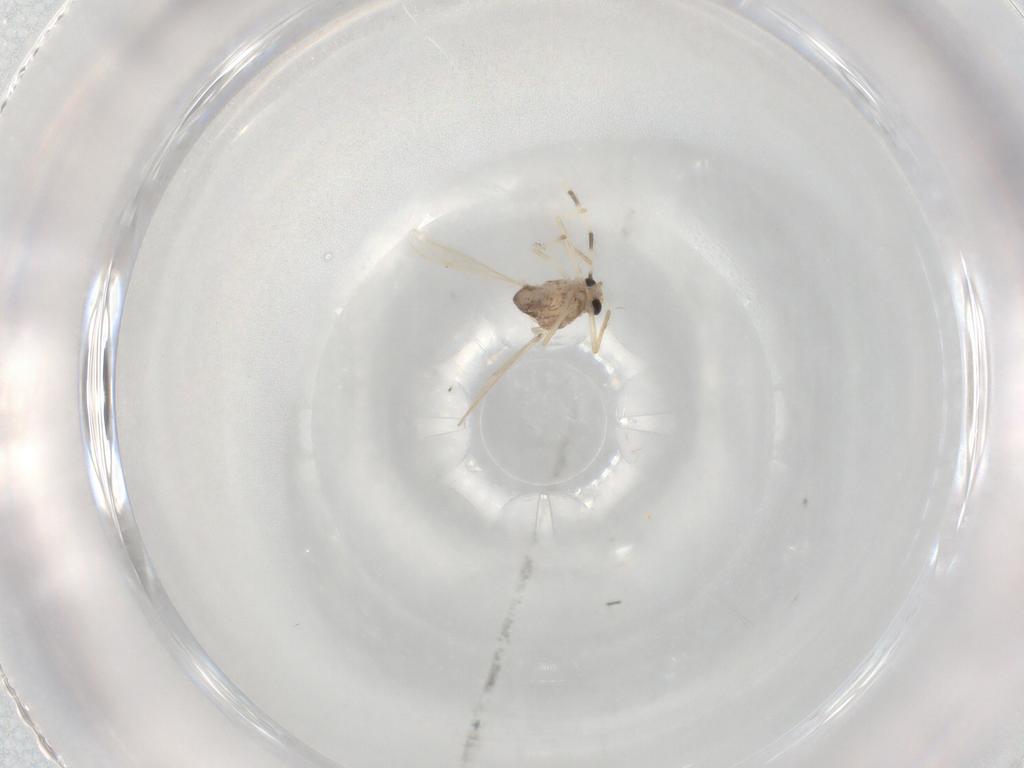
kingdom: Animalia
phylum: Arthropoda
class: Insecta
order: Diptera
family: Chironomidae
